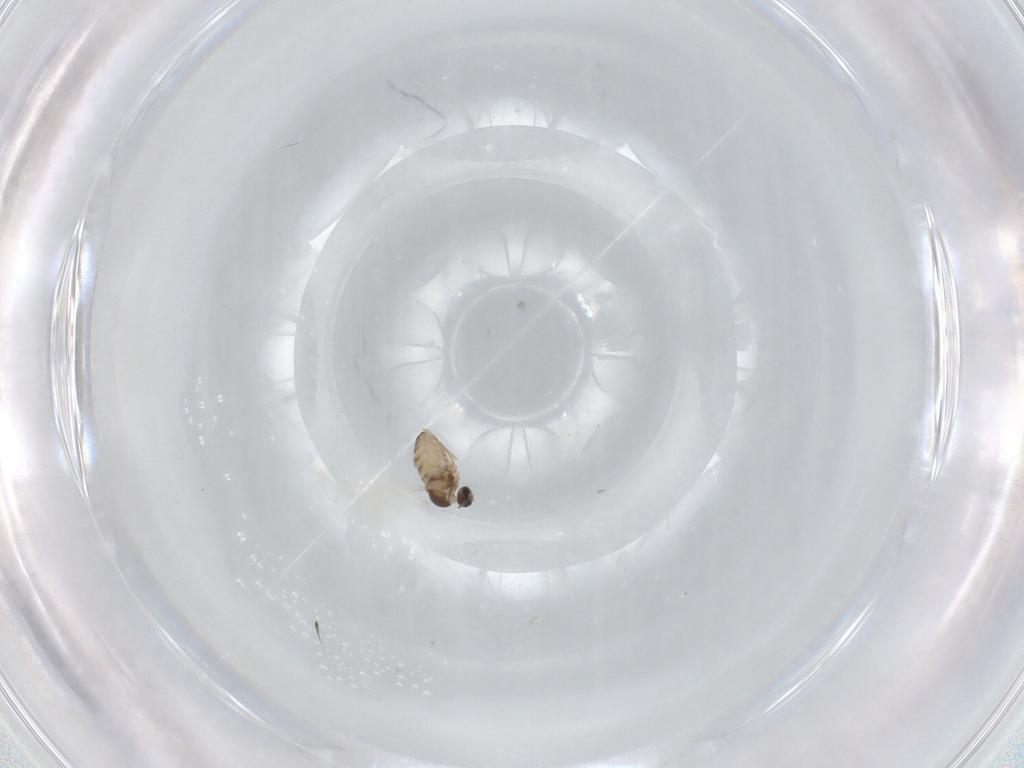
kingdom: Animalia
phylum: Arthropoda
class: Insecta
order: Diptera
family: Cecidomyiidae
